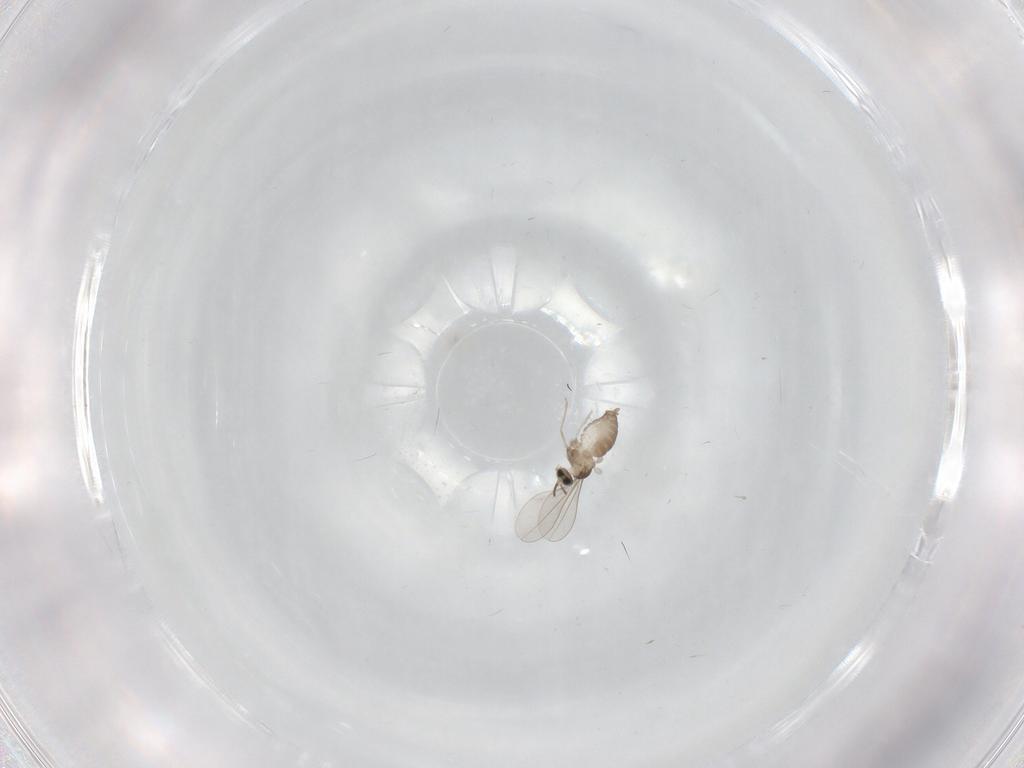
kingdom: Animalia
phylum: Arthropoda
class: Insecta
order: Diptera
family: Cecidomyiidae
